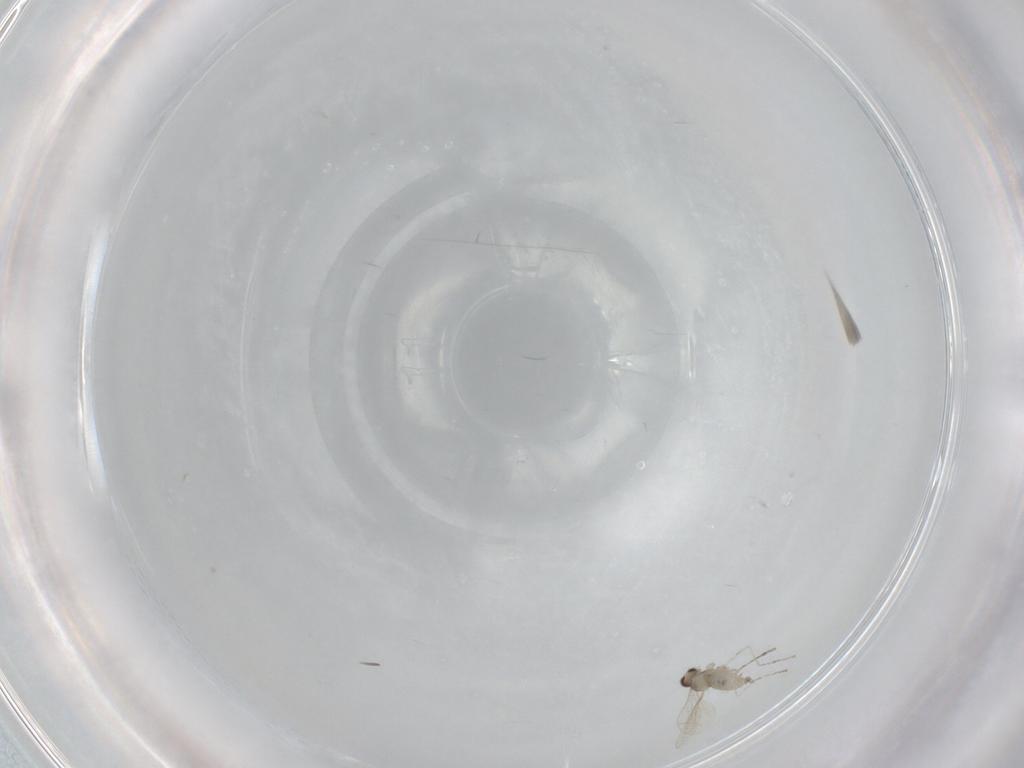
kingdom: Animalia
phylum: Arthropoda
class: Insecta
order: Diptera
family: Cecidomyiidae
